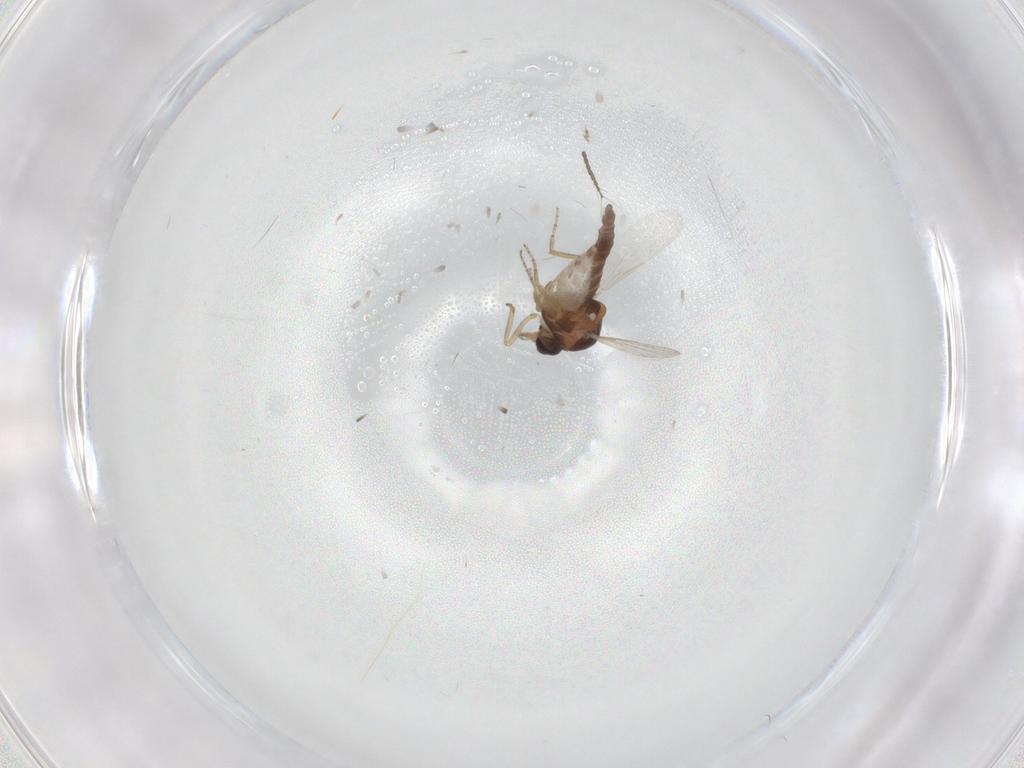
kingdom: Animalia
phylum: Arthropoda
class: Insecta
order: Diptera
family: Ceratopogonidae
